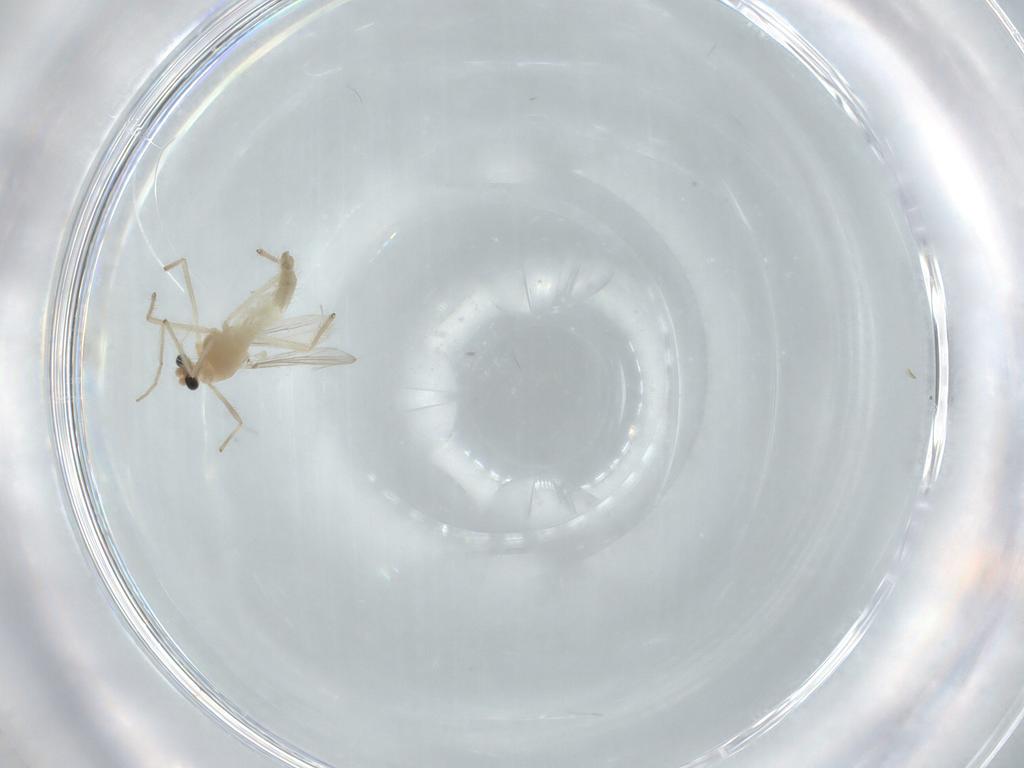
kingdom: Animalia
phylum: Arthropoda
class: Insecta
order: Diptera
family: Chironomidae
